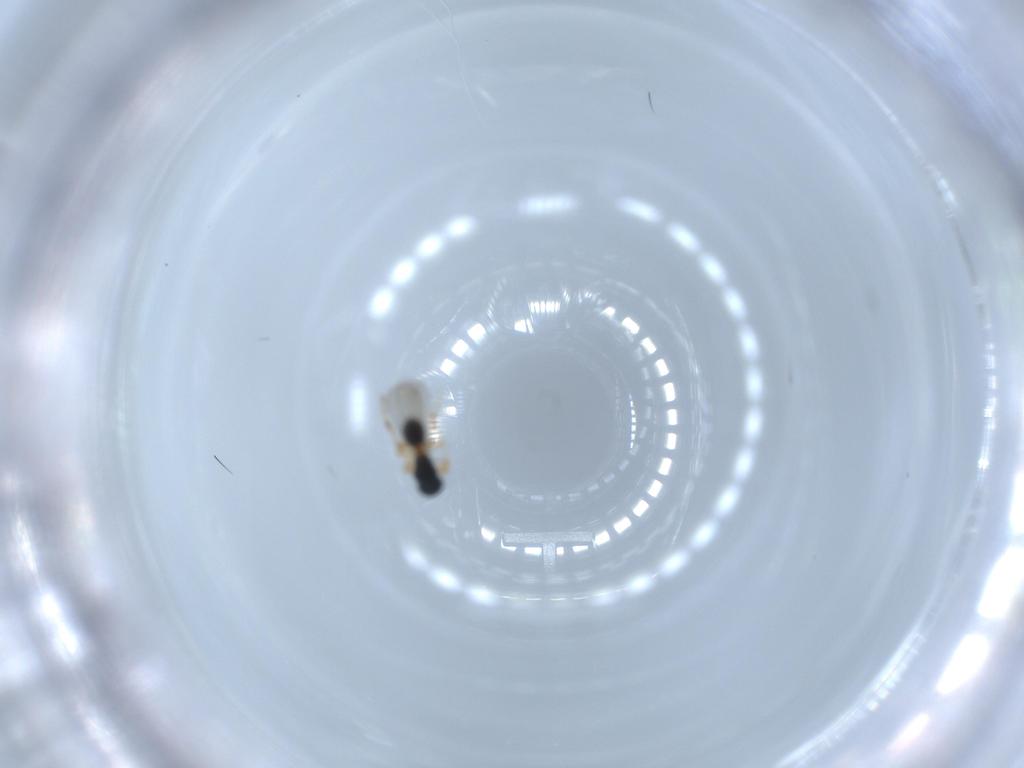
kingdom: Animalia
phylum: Arthropoda
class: Insecta
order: Hymenoptera
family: Platygastridae
